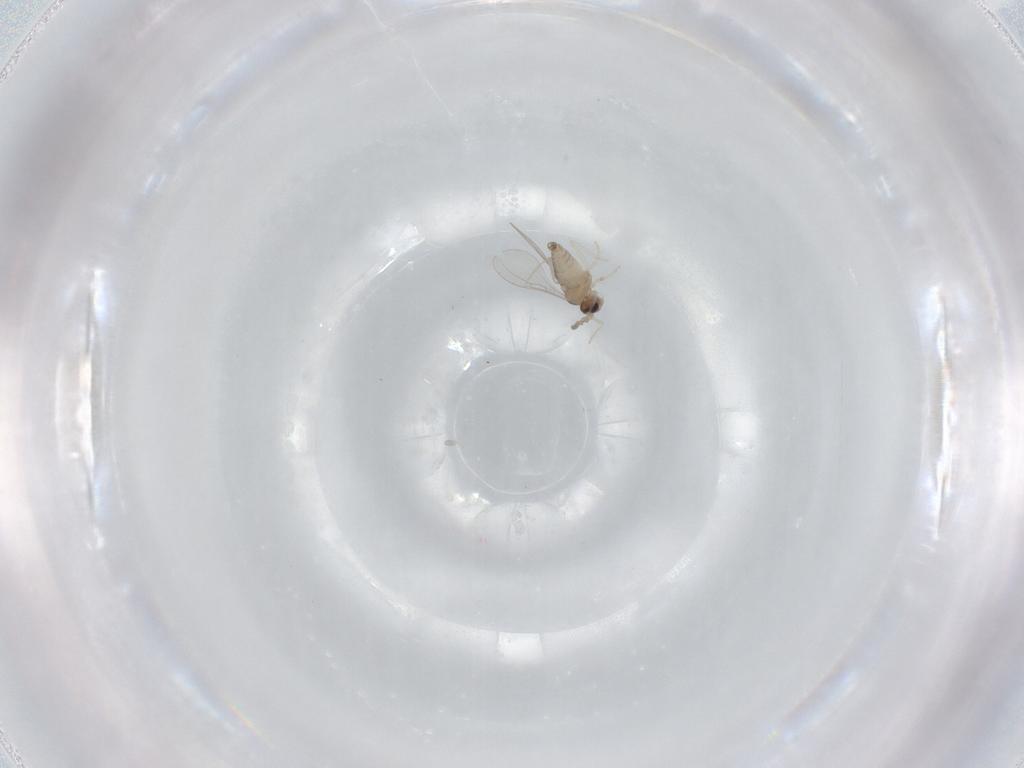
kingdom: Animalia
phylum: Arthropoda
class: Insecta
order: Diptera
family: Cecidomyiidae
